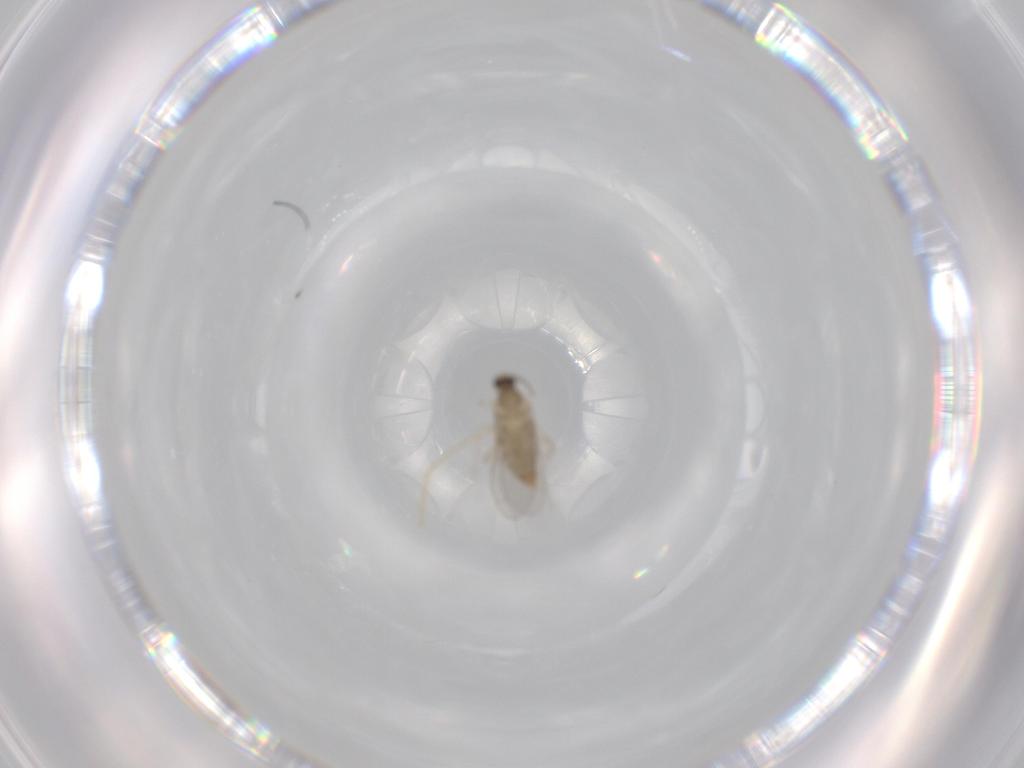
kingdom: Animalia
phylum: Arthropoda
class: Insecta
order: Diptera
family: Cecidomyiidae
